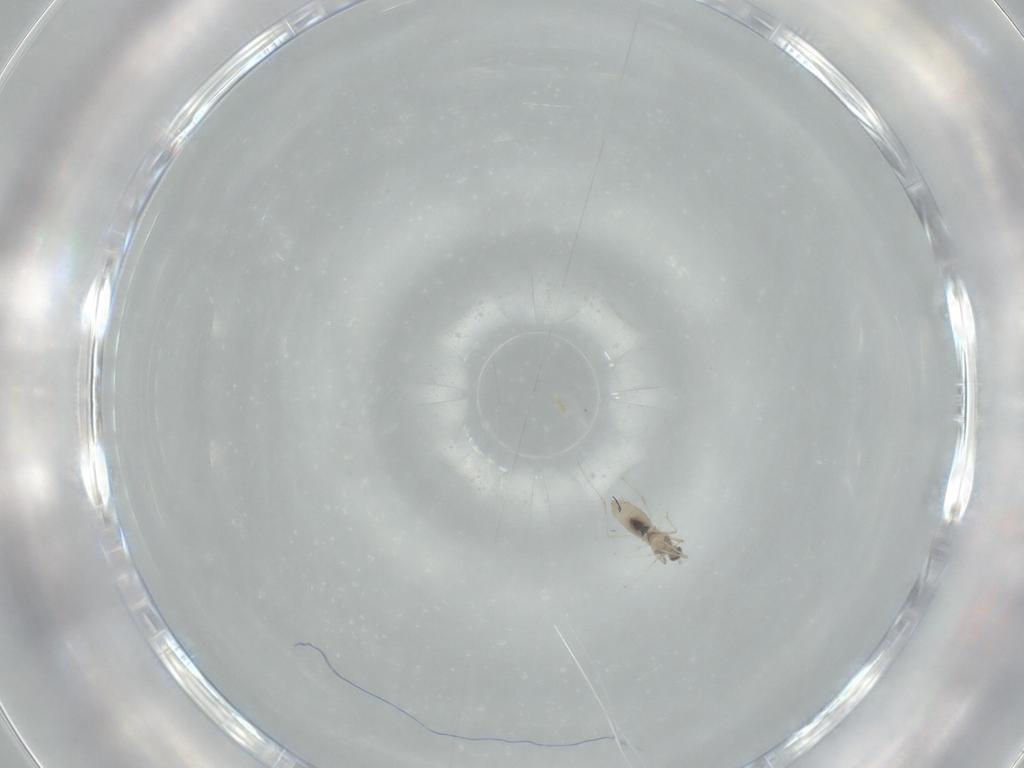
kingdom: Animalia
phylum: Arthropoda
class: Insecta
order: Diptera
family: Cecidomyiidae
